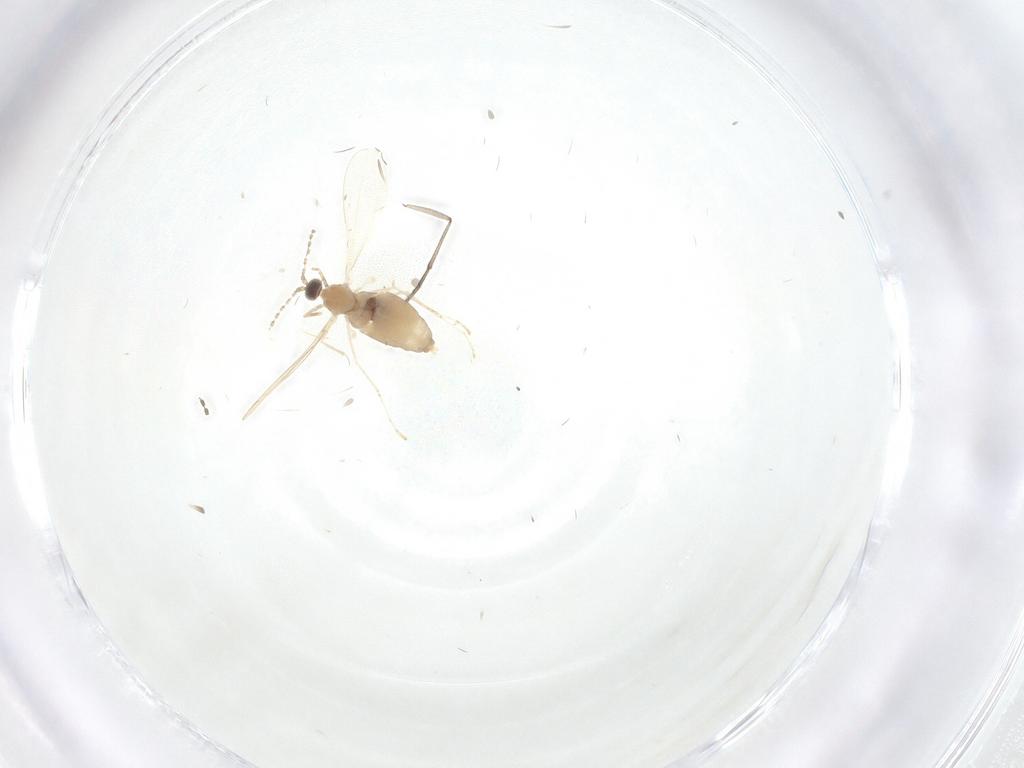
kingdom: Animalia
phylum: Arthropoda
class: Insecta
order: Diptera
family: Cecidomyiidae
